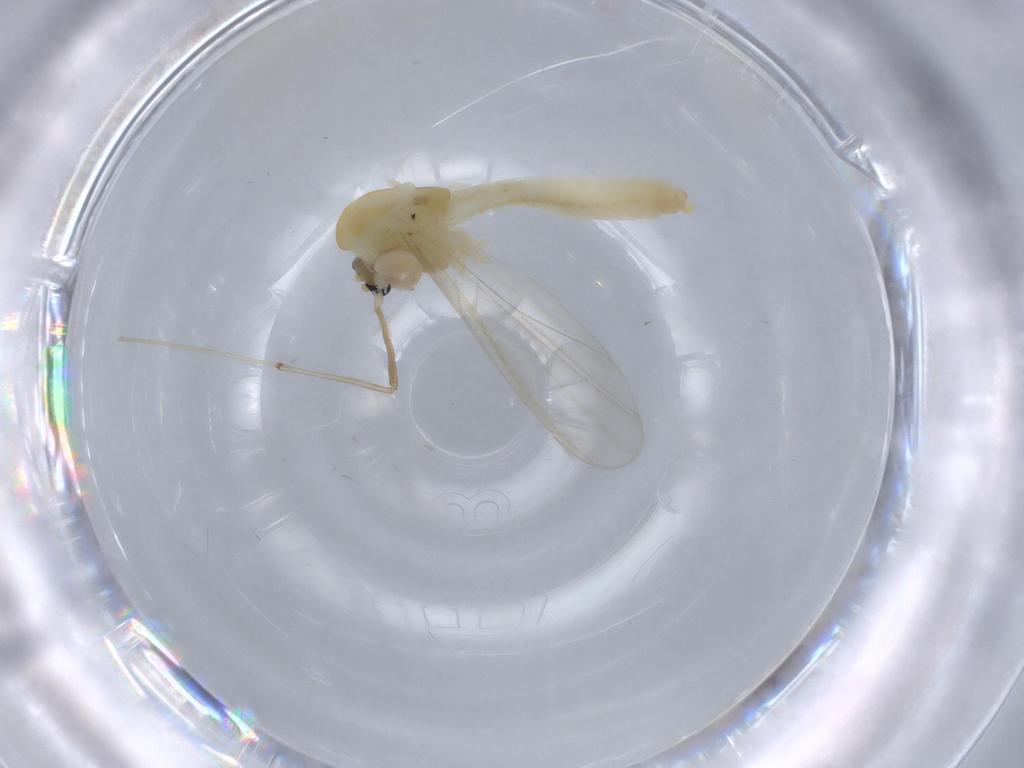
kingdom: Animalia
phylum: Arthropoda
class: Insecta
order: Diptera
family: Chironomidae
